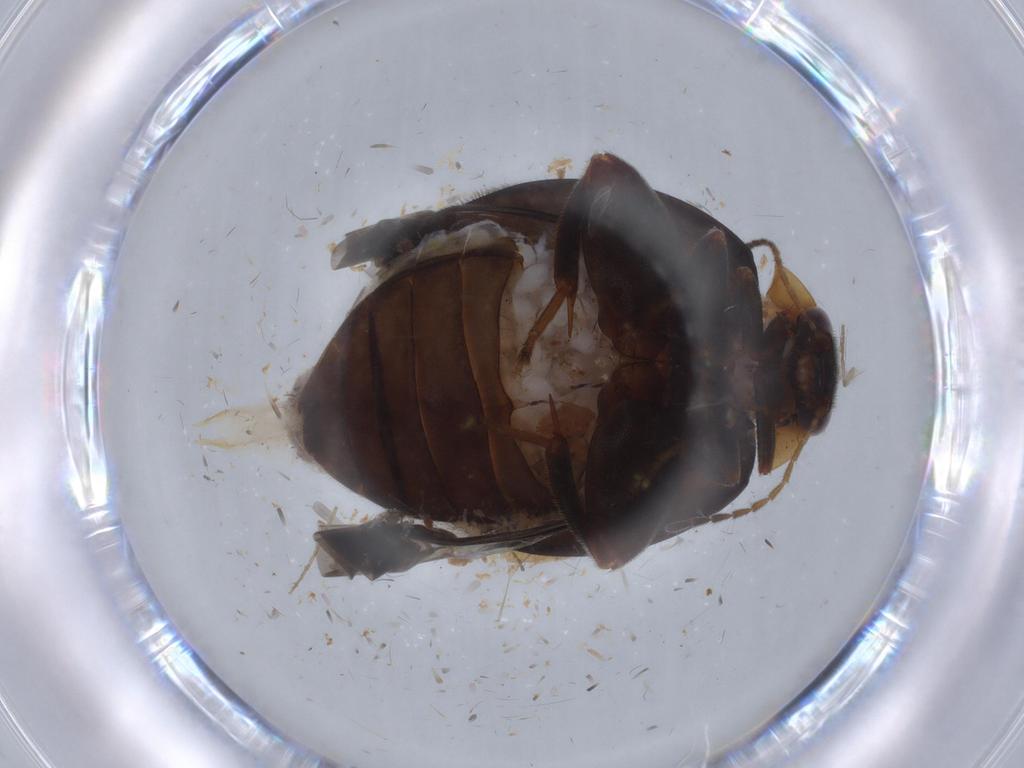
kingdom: Animalia
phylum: Arthropoda
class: Insecta
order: Coleoptera
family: Scirtidae
